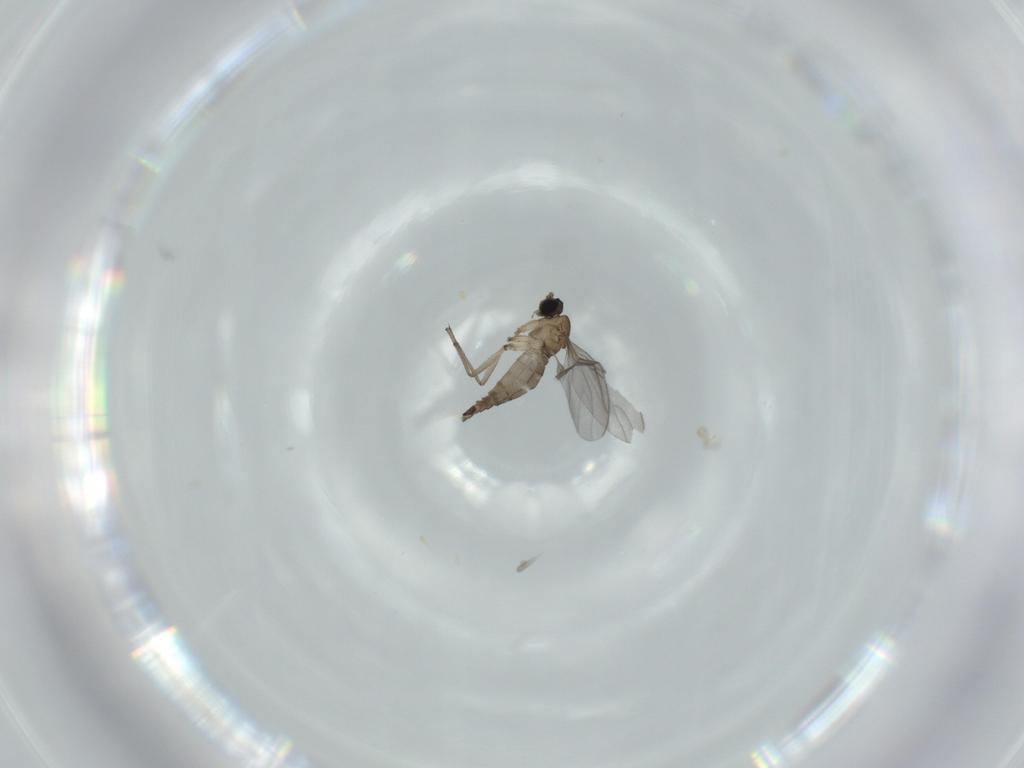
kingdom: Animalia
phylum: Arthropoda
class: Insecta
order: Diptera
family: Sciaridae
